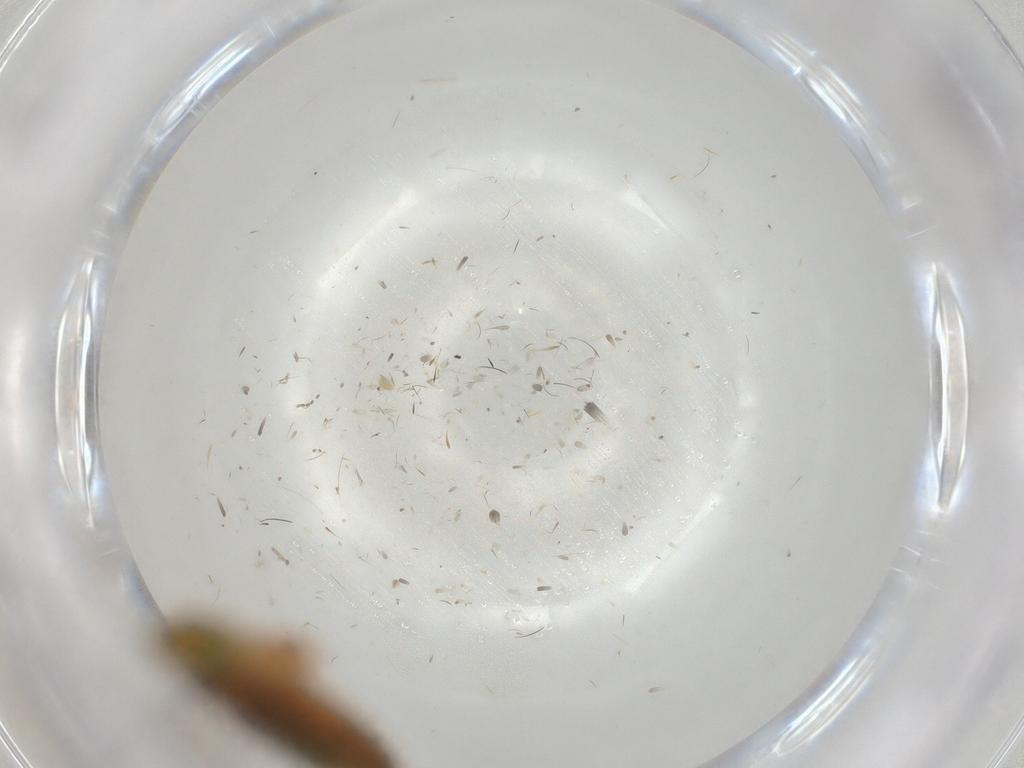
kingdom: Animalia
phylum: Arthropoda
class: Insecta
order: Hemiptera
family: Cicadellidae
